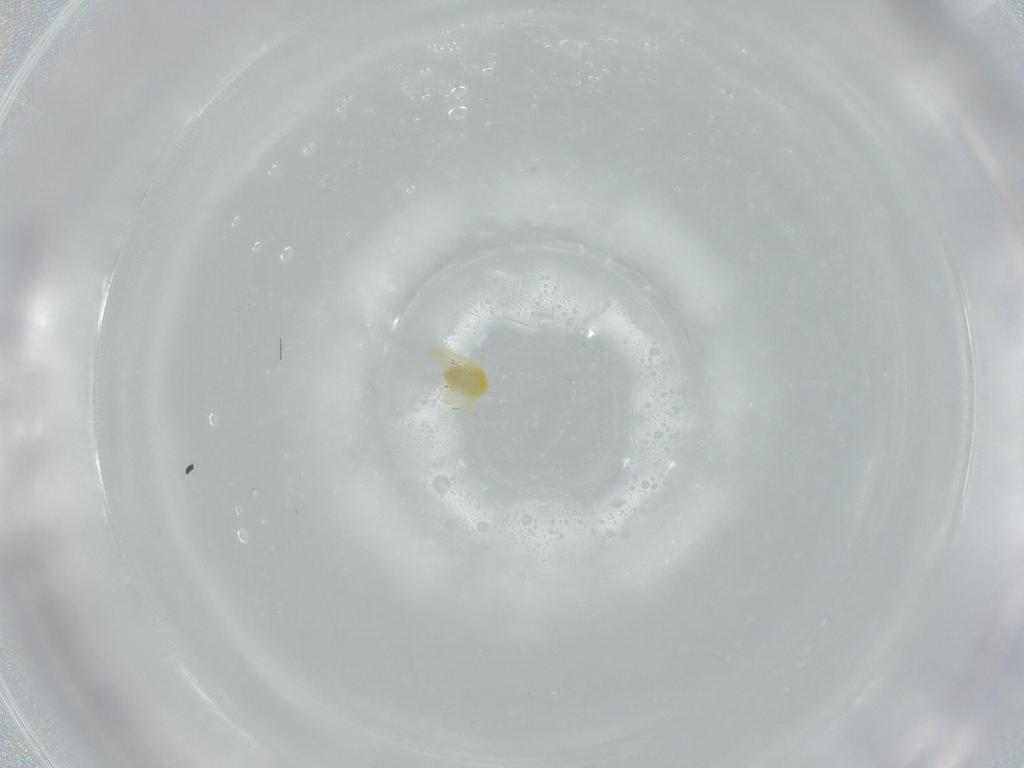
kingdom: Animalia
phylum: Arthropoda
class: Insecta
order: Hemiptera
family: Aleyrodidae
